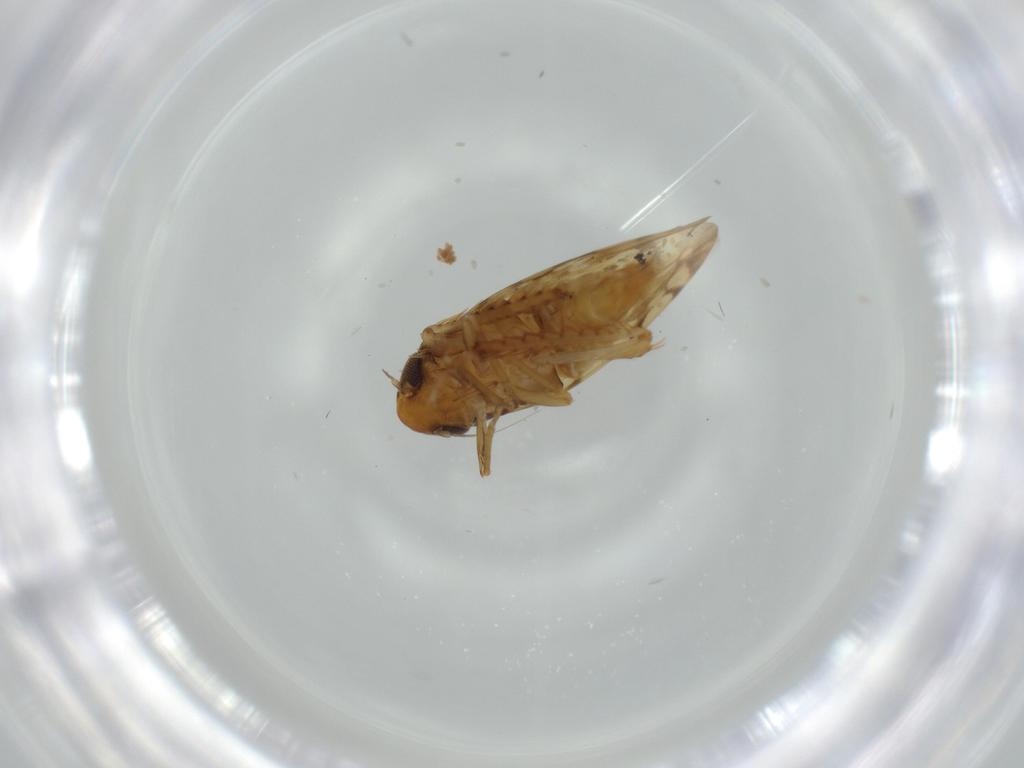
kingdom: Animalia
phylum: Arthropoda
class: Insecta
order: Hemiptera
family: Cicadellidae
